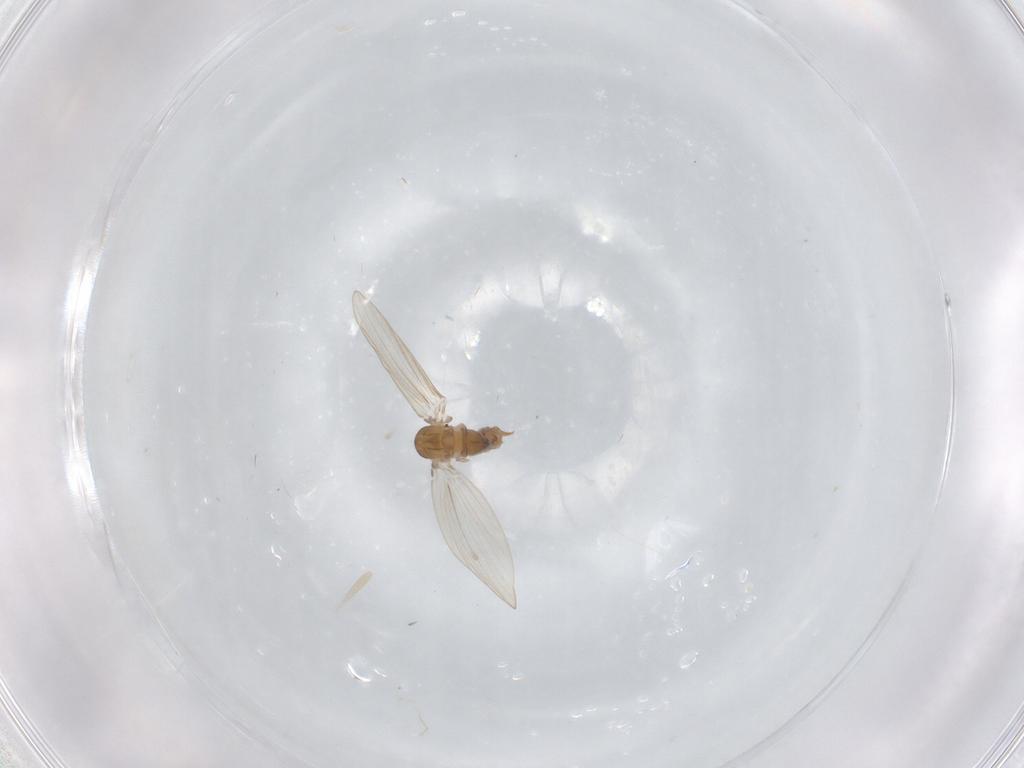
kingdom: Animalia
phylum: Arthropoda
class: Insecta
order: Diptera
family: Psychodidae
